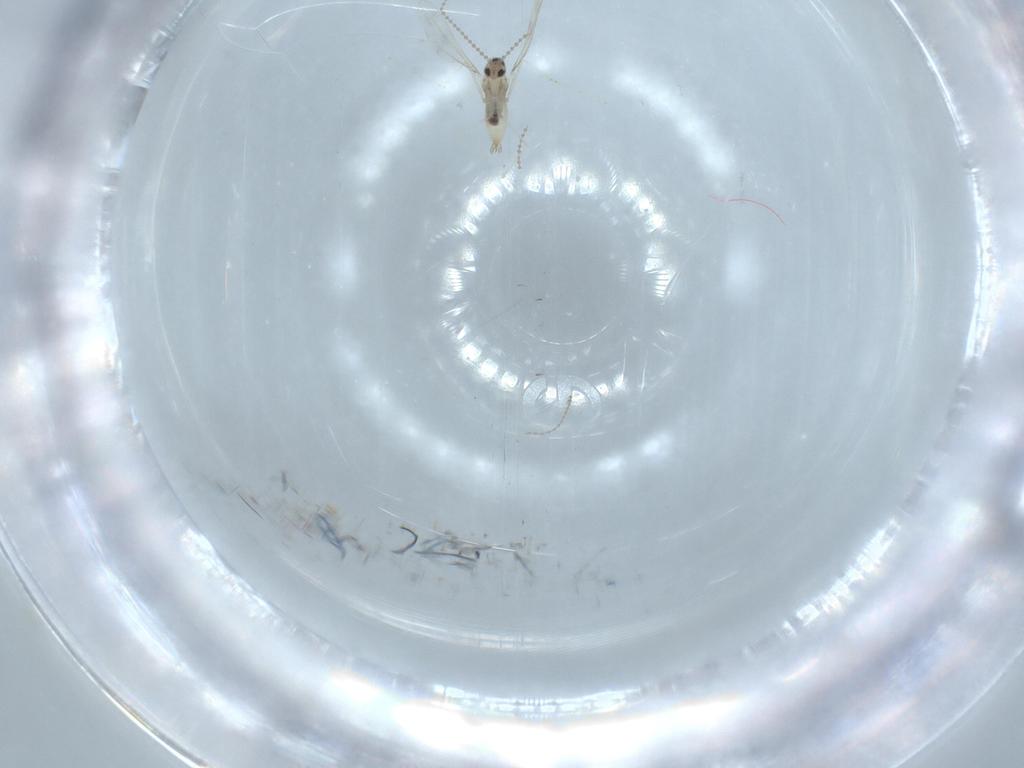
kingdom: Animalia
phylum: Arthropoda
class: Insecta
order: Diptera
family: Cecidomyiidae
